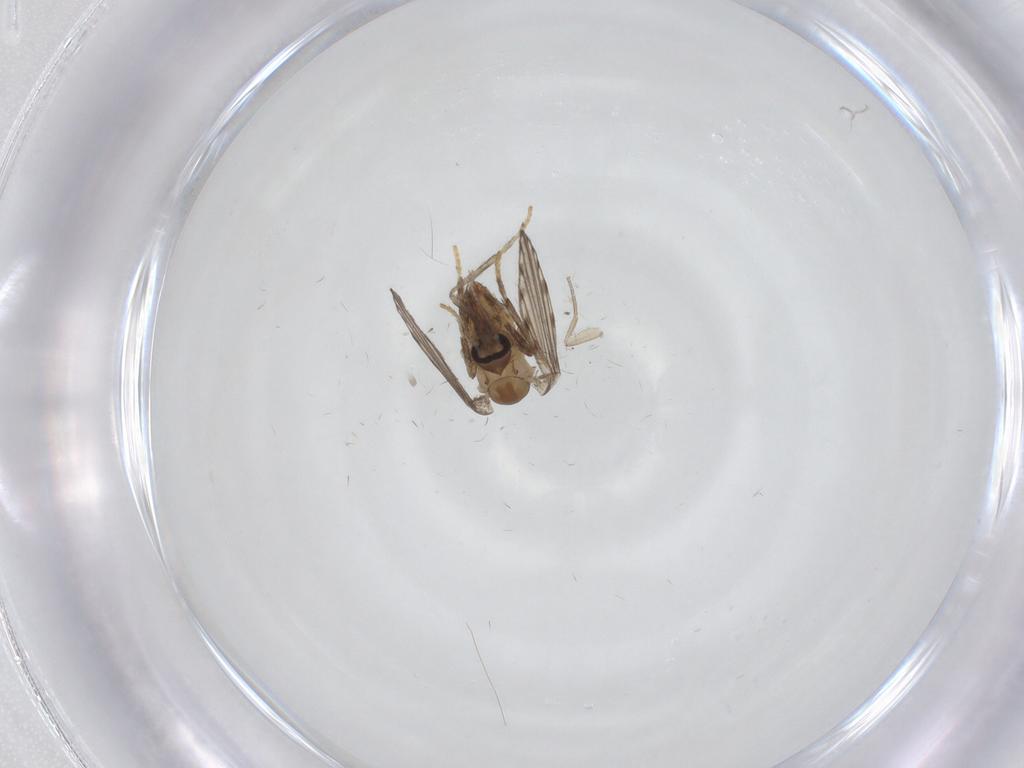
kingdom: Animalia
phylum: Arthropoda
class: Insecta
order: Diptera
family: Psychodidae
